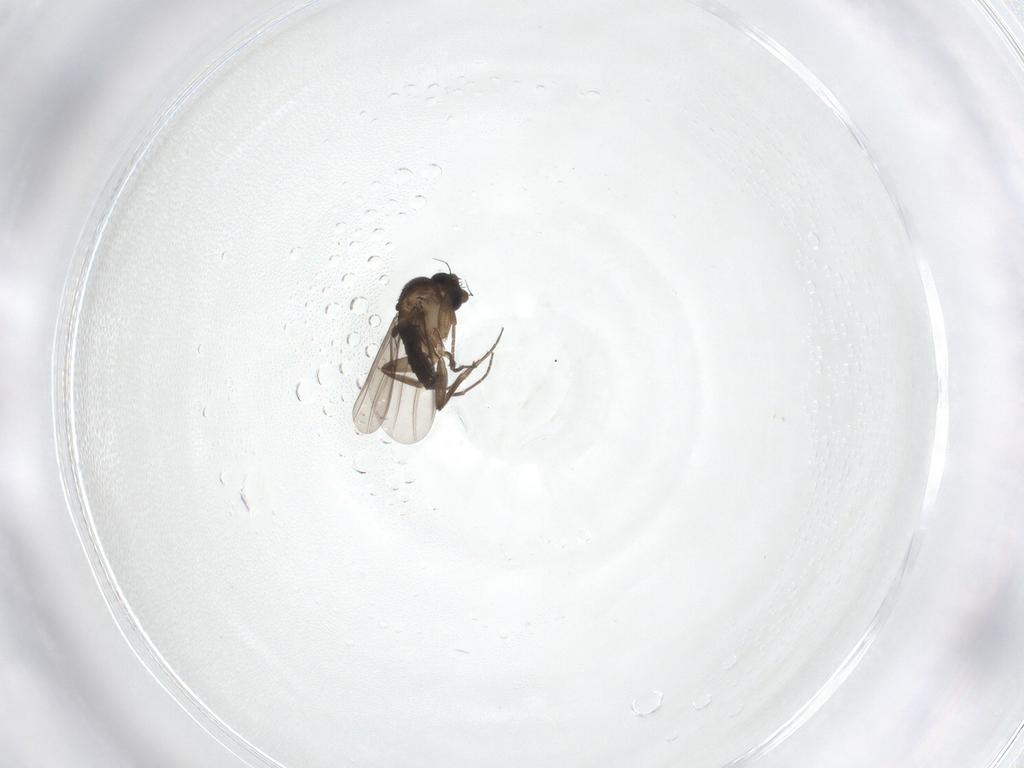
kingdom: Animalia
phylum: Arthropoda
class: Insecta
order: Diptera
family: Phoridae
